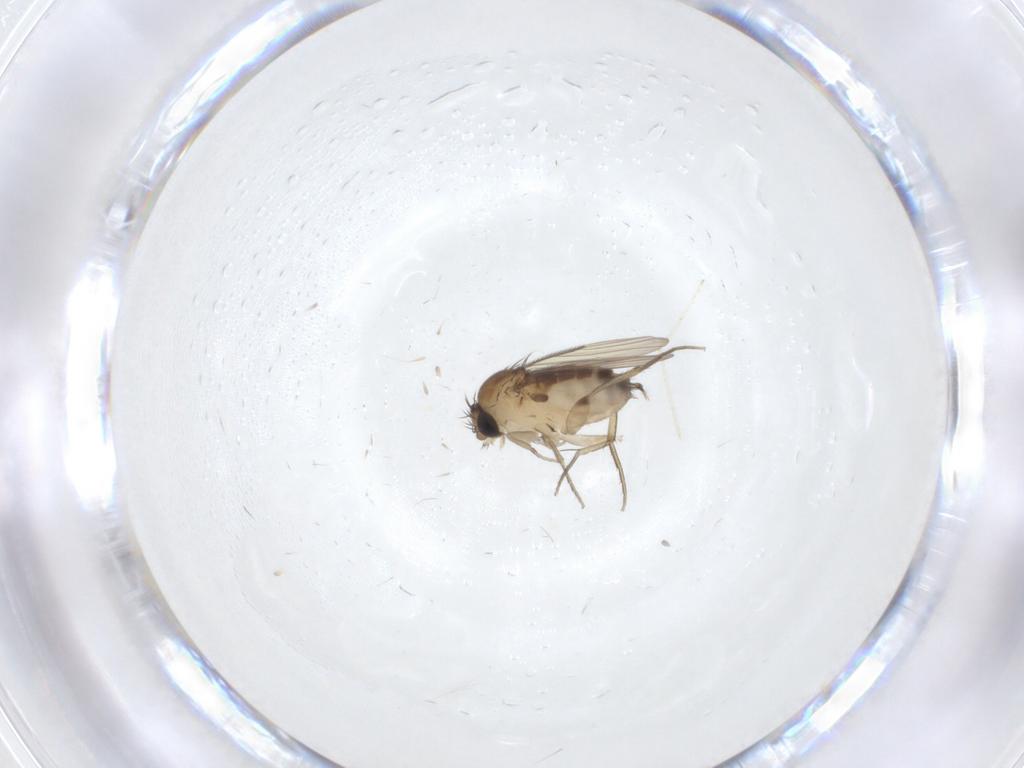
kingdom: Animalia
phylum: Arthropoda
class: Insecta
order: Diptera
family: Cecidomyiidae
